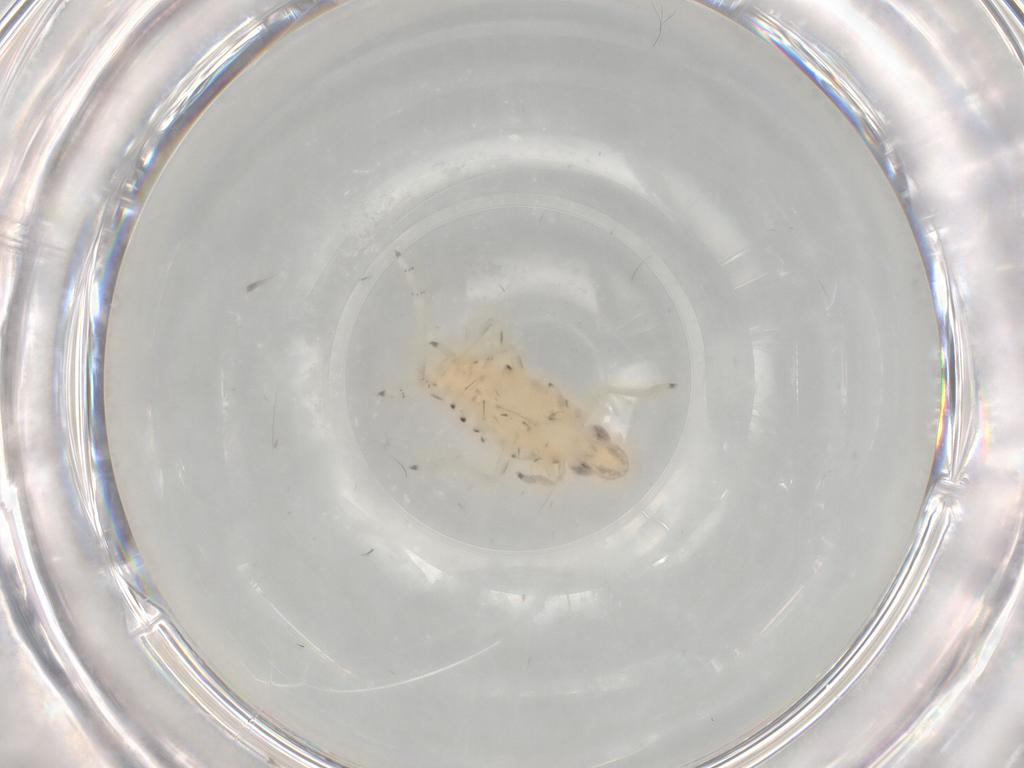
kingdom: Animalia
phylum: Arthropoda
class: Insecta
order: Hemiptera
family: Tropiduchidae
